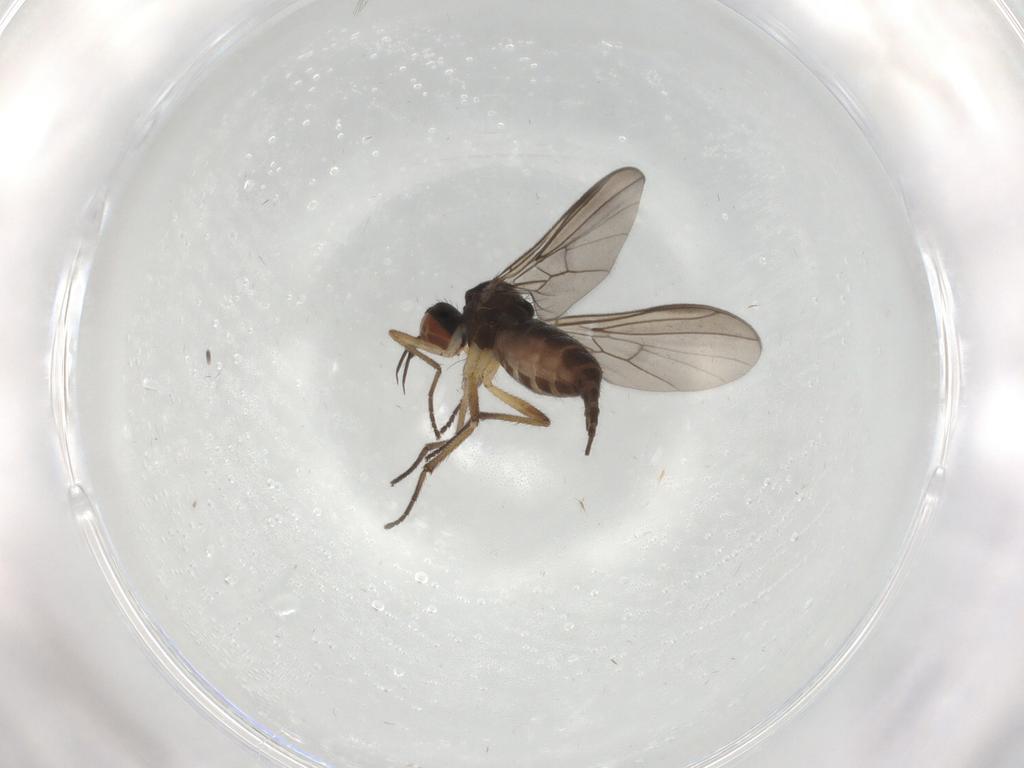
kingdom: Animalia
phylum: Arthropoda
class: Insecta
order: Diptera
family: Empididae
